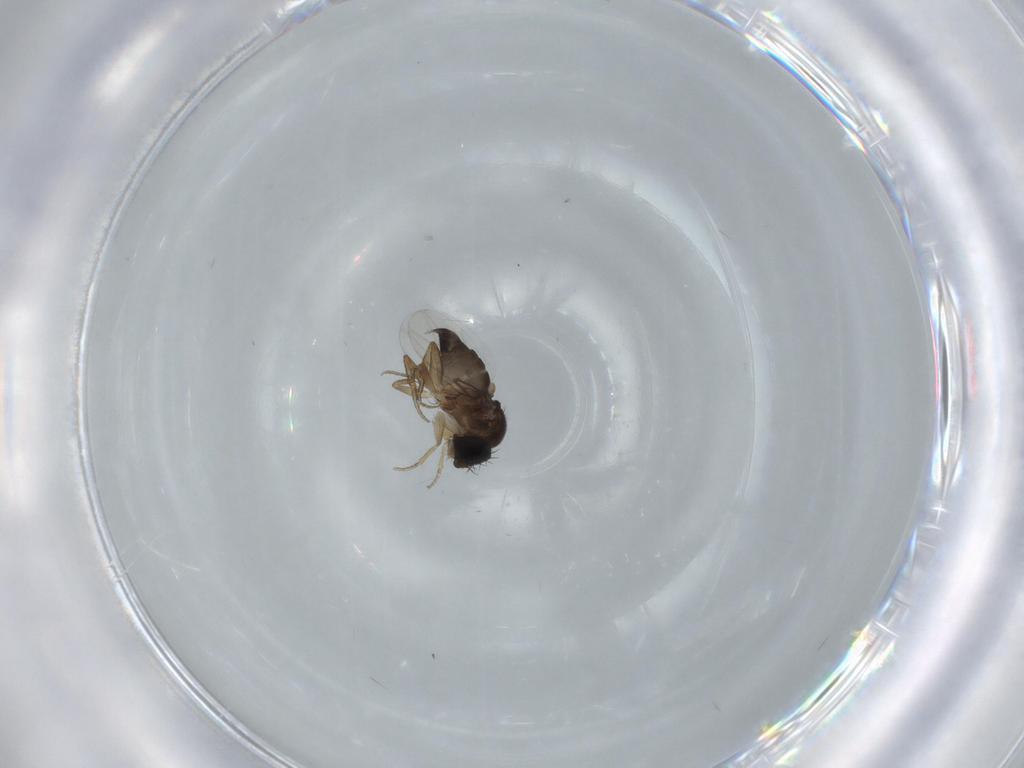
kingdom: Animalia
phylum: Arthropoda
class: Insecta
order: Diptera
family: Phoridae
